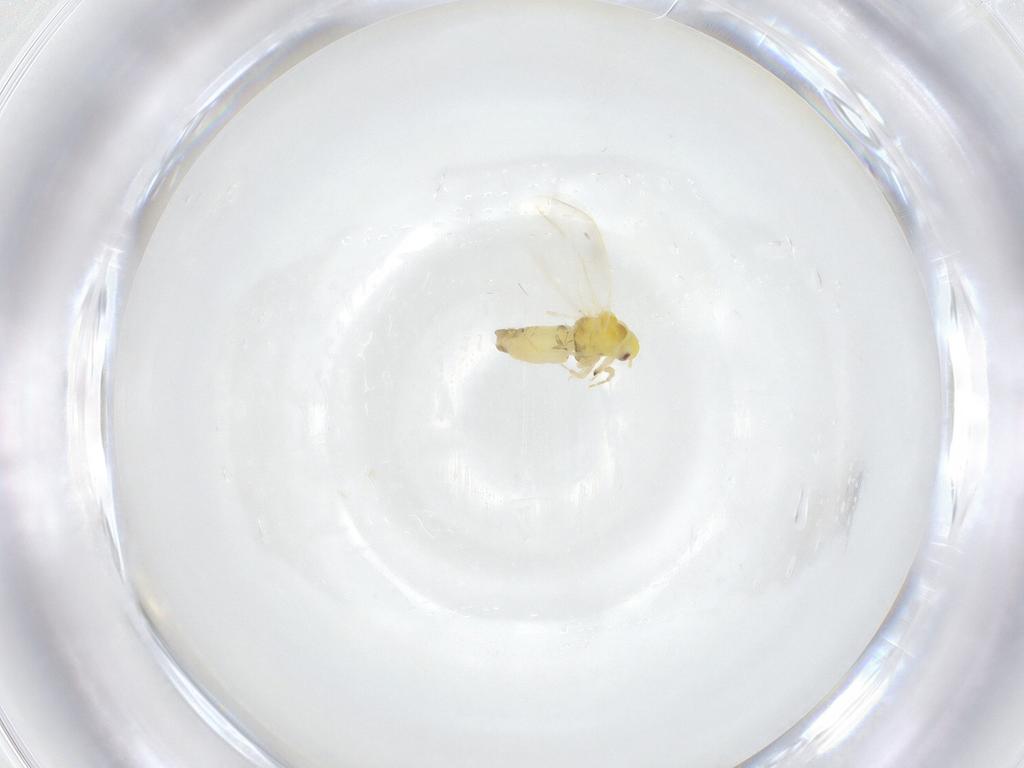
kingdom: Animalia
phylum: Arthropoda
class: Insecta
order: Hemiptera
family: Aleyrodidae
